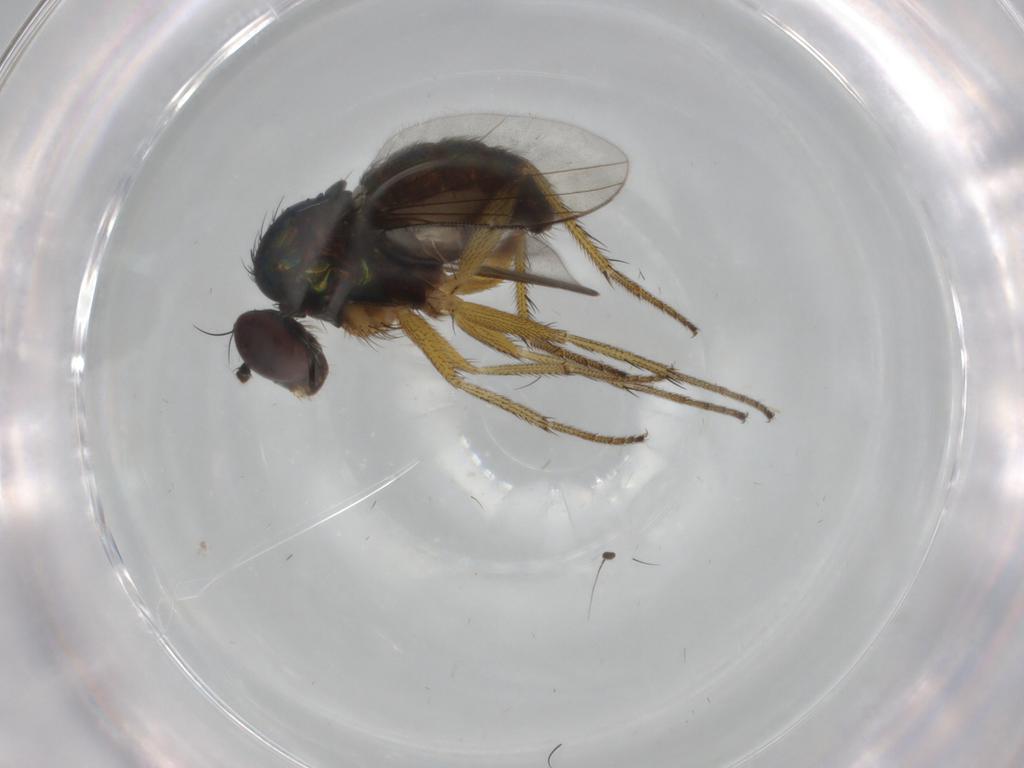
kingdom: Animalia
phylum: Arthropoda
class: Insecta
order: Diptera
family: Dolichopodidae
